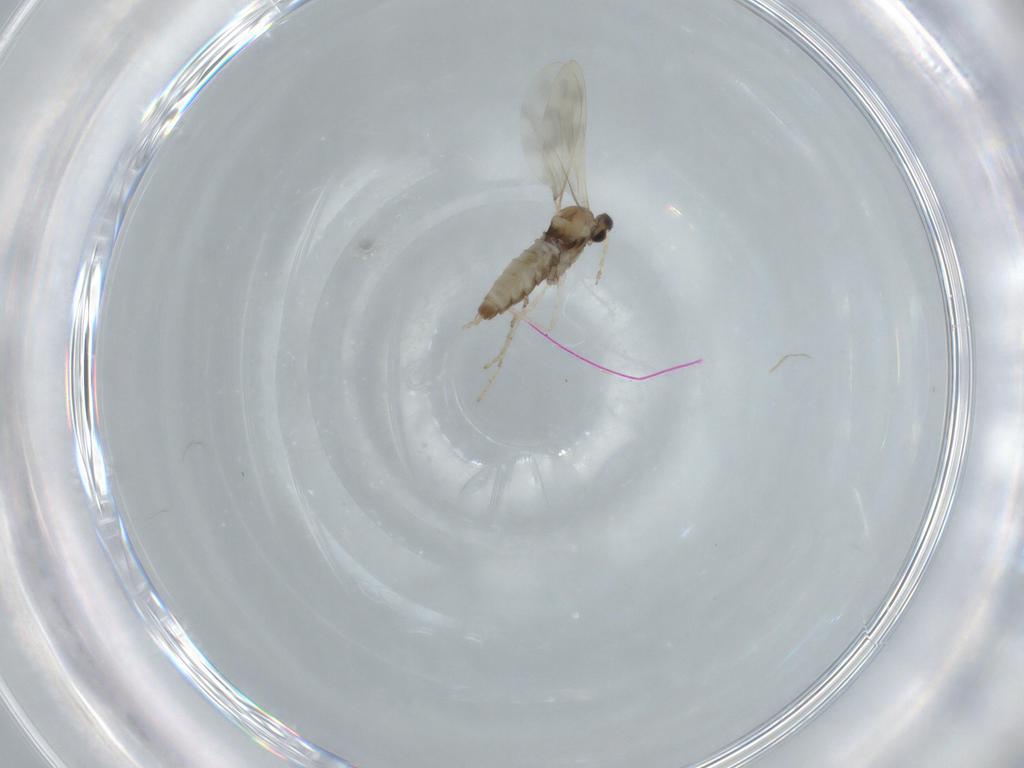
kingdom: Animalia
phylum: Arthropoda
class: Insecta
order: Diptera
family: Cecidomyiidae
